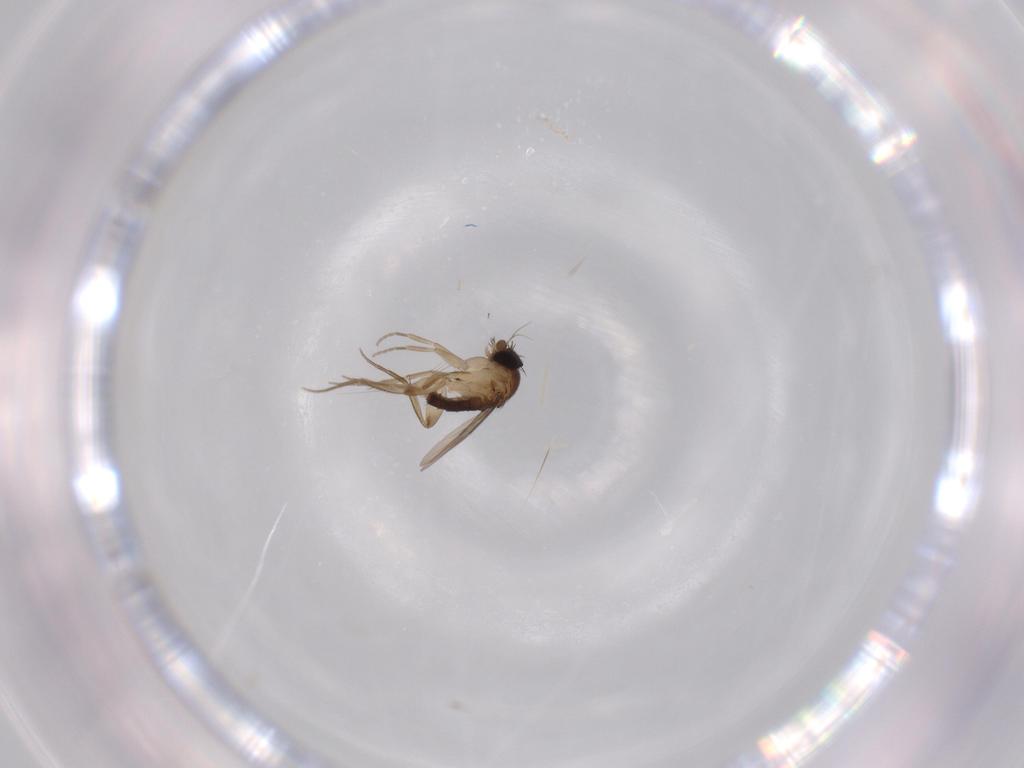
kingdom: Animalia
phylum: Arthropoda
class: Insecta
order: Diptera
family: Phoridae
